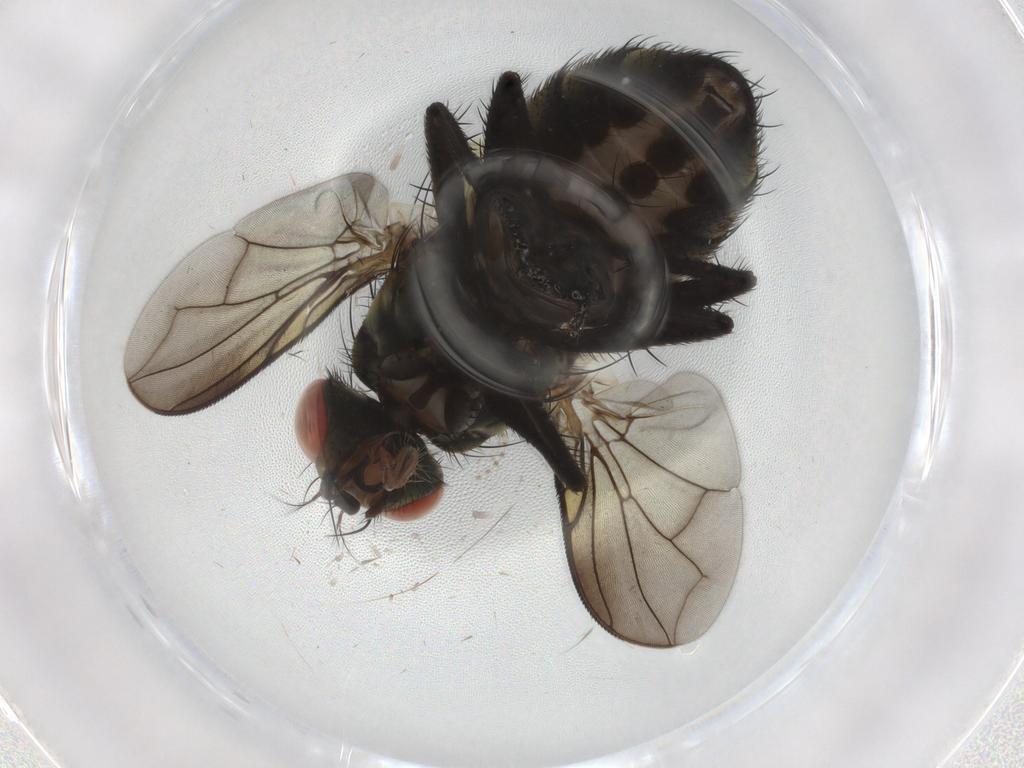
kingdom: Animalia
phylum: Arthropoda
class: Insecta
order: Diptera
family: Sarcophagidae
